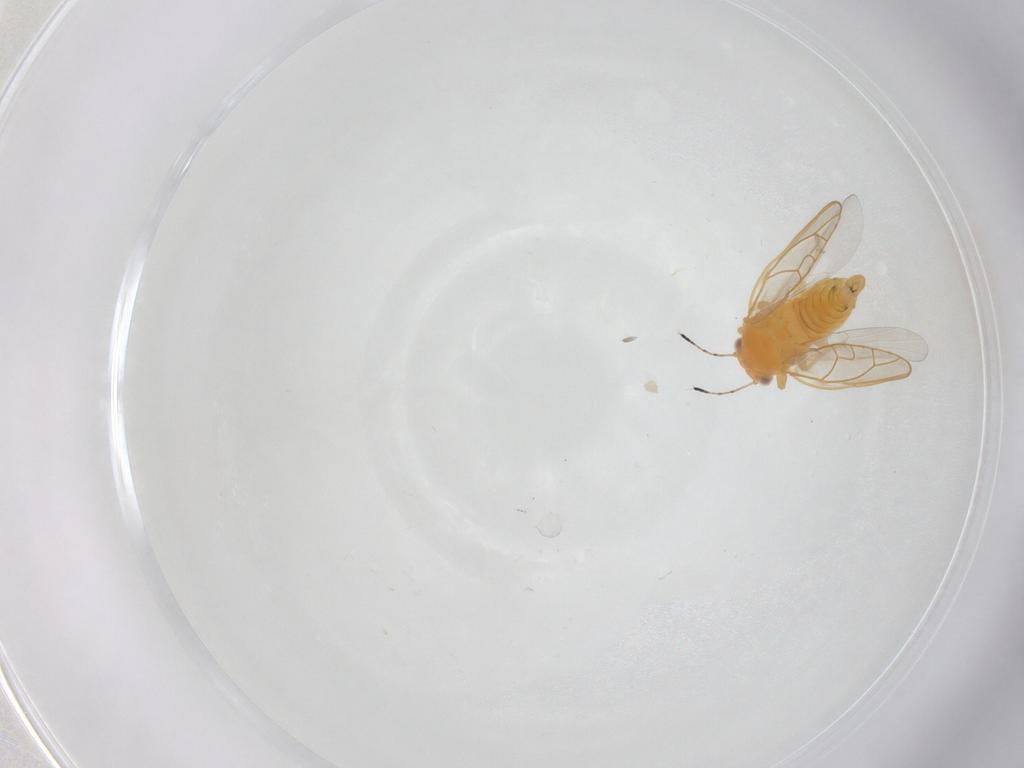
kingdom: Animalia
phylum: Arthropoda
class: Insecta
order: Hemiptera
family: Triozidae
